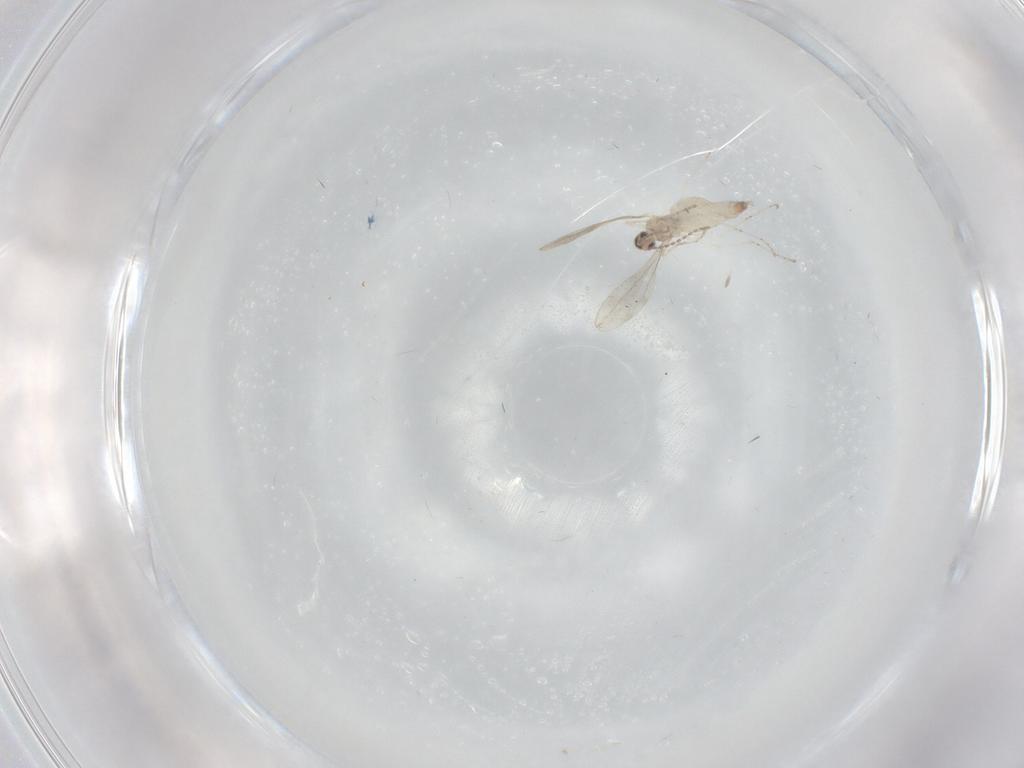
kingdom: Animalia
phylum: Arthropoda
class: Insecta
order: Diptera
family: Cecidomyiidae
